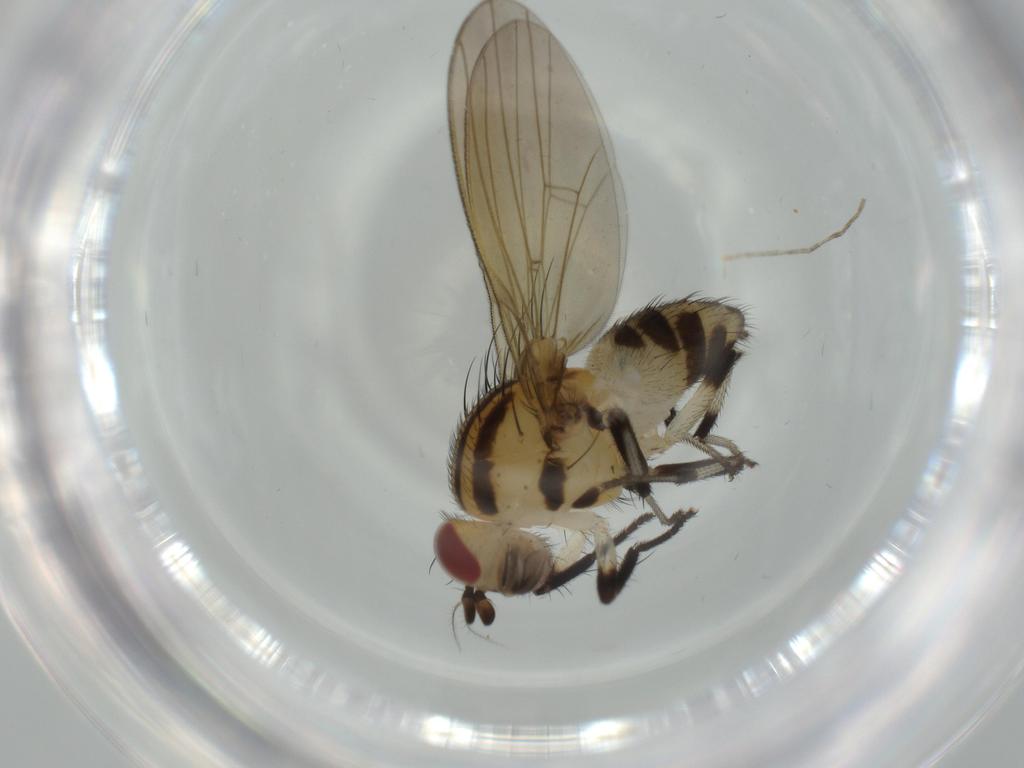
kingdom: Animalia
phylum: Arthropoda
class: Insecta
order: Diptera
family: Lauxaniidae
